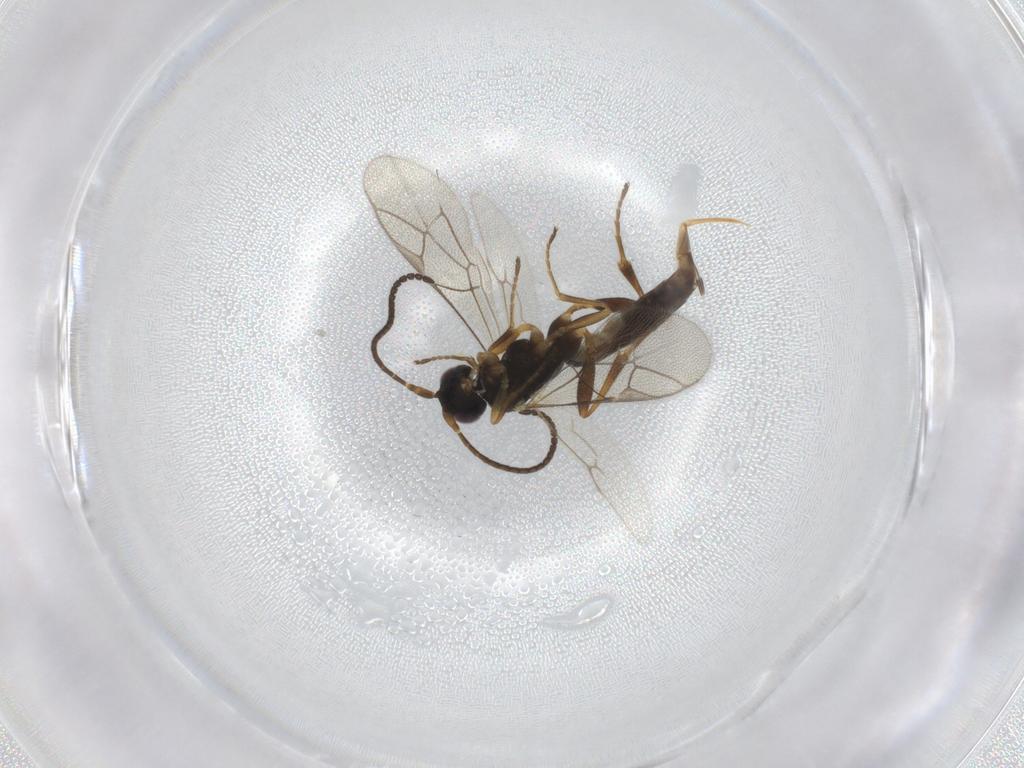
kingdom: Animalia
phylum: Arthropoda
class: Insecta
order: Hymenoptera
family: Ichneumonidae
